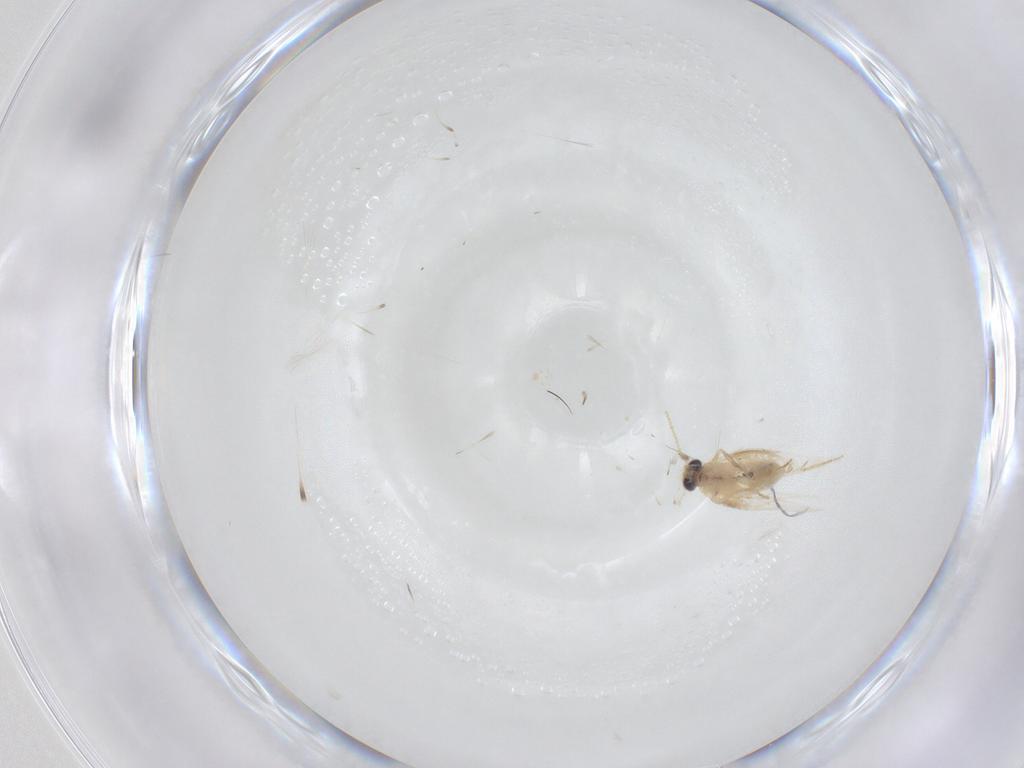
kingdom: Animalia
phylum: Arthropoda
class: Insecta
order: Lepidoptera
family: Nepticulidae
